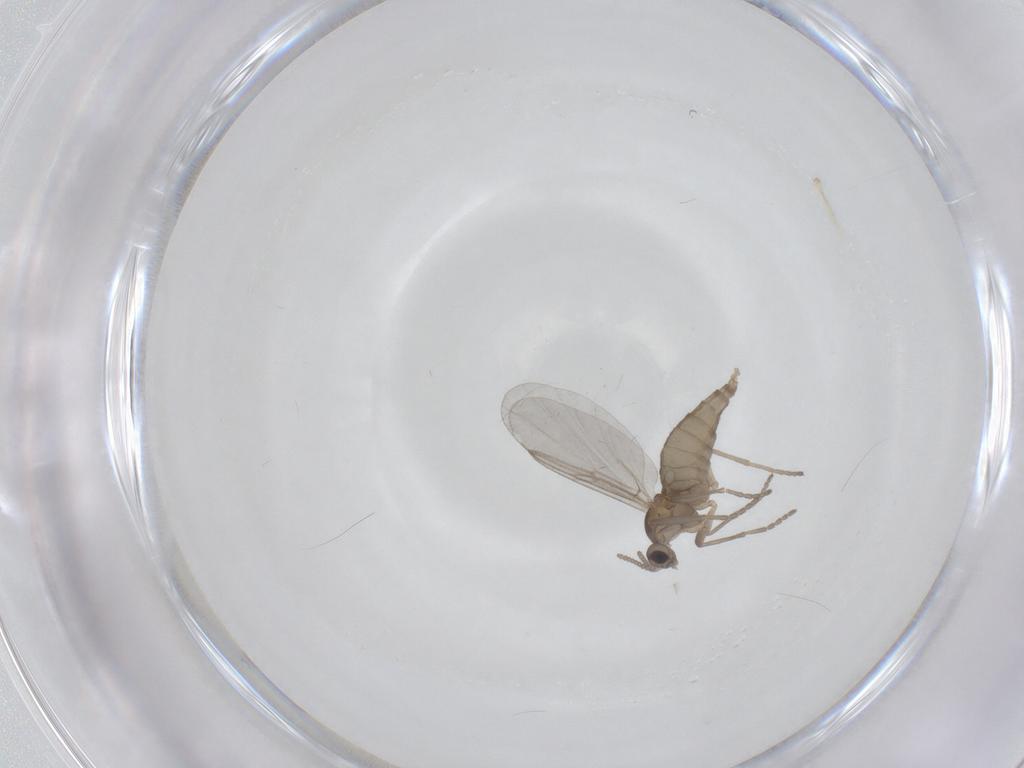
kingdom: Animalia
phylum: Arthropoda
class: Insecta
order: Diptera
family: Cecidomyiidae
